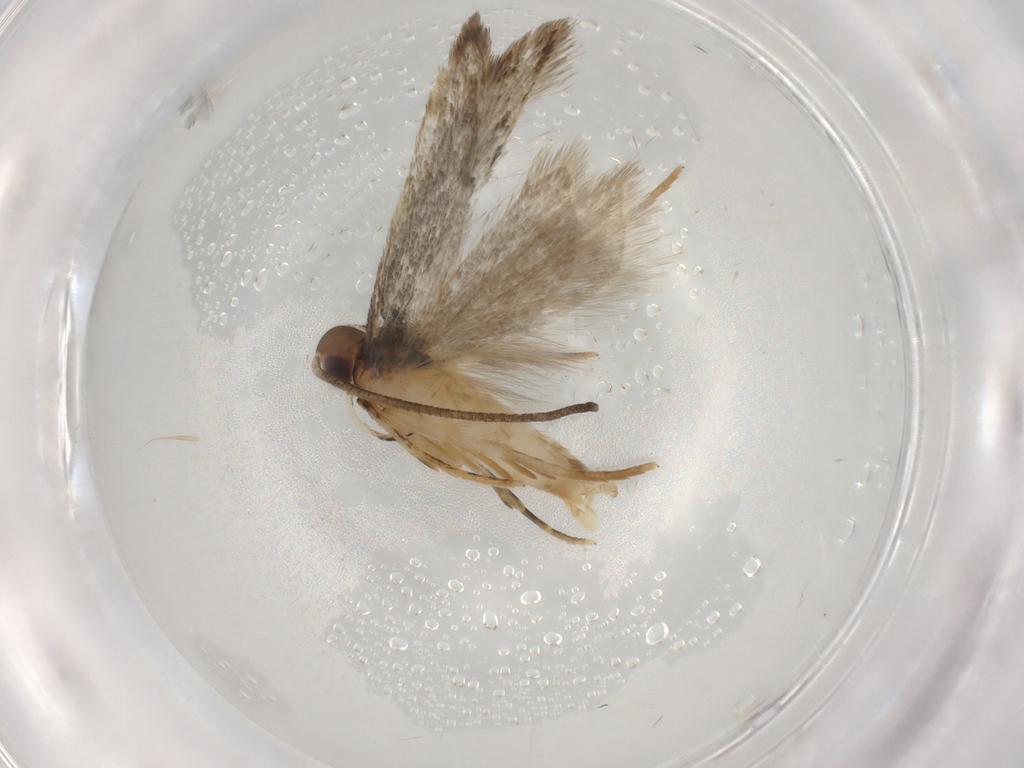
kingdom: Animalia
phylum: Arthropoda
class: Insecta
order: Lepidoptera
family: Autostichidae
